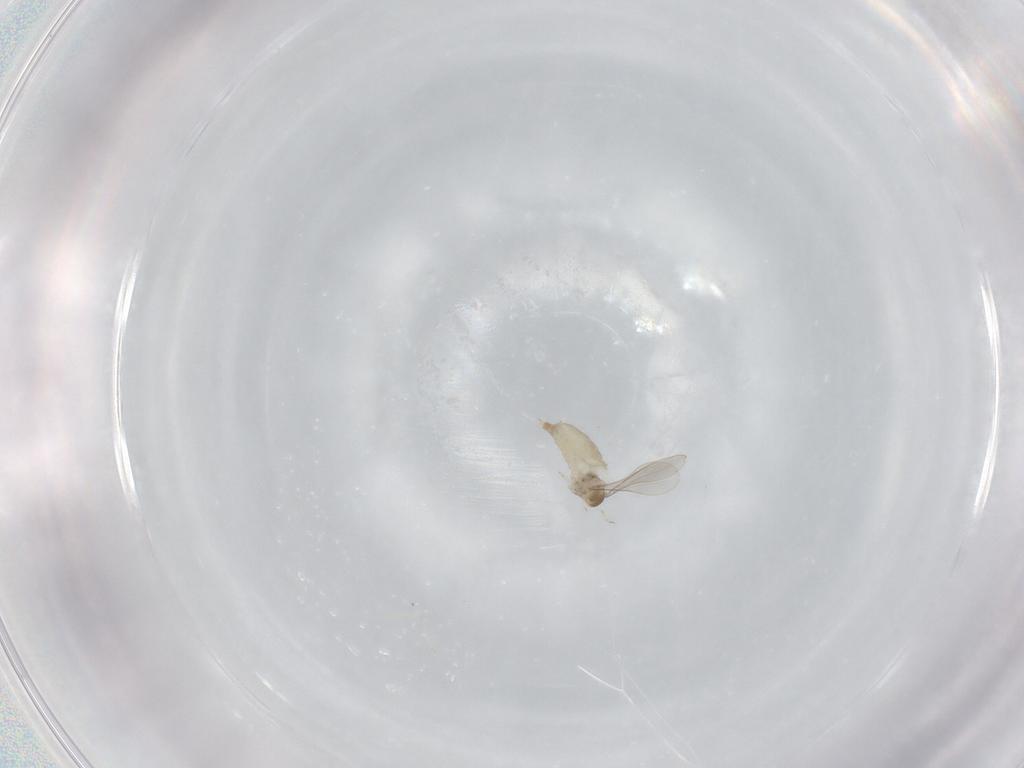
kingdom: Animalia
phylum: Arthropoda
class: Insecta
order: Diptera
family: Cecidomyiidae
